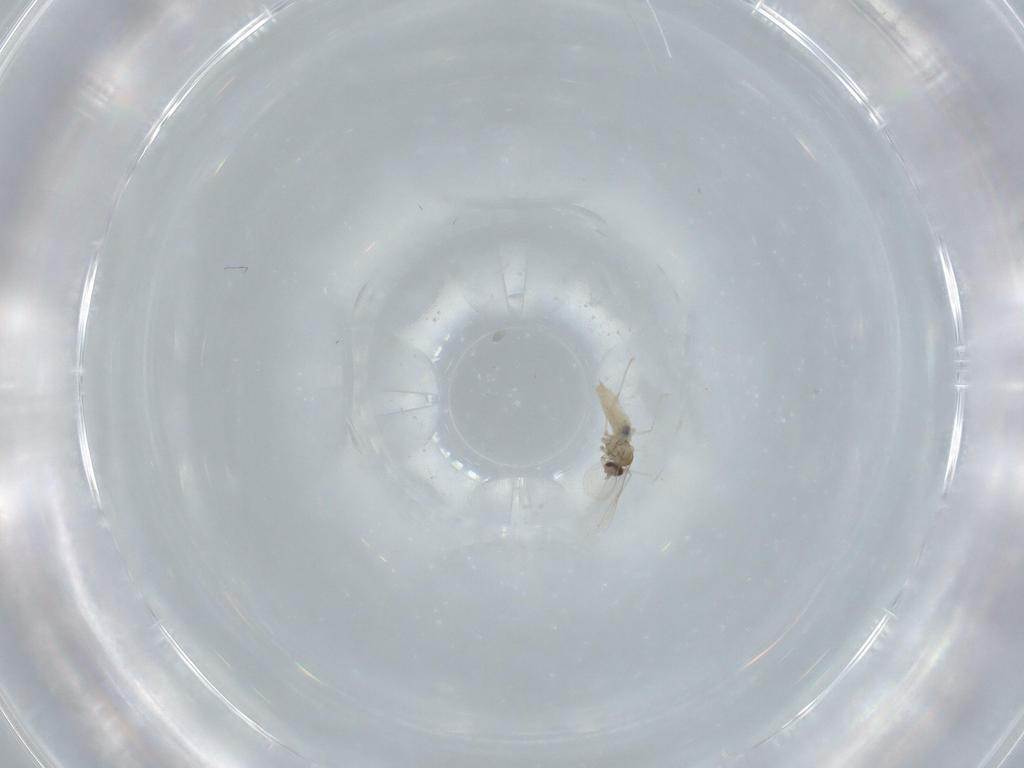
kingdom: Animalia
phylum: Arthropoda
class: Insecta
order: Diptera
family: Cecidomyiidae
